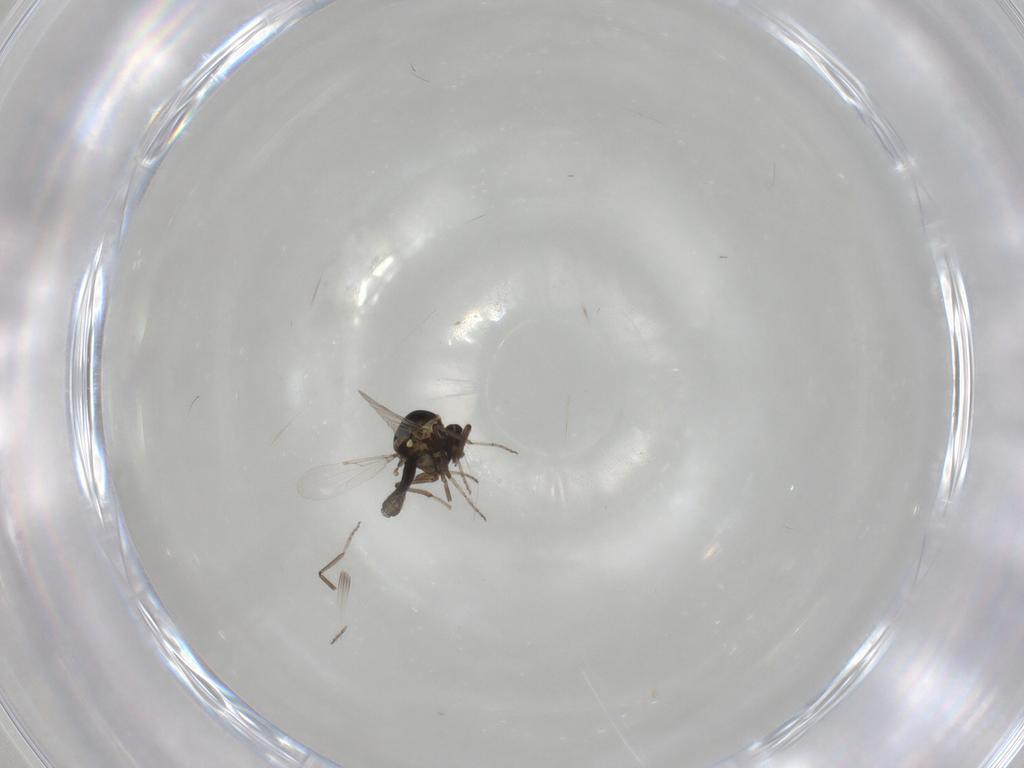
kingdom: Animalia
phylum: Arthropoda
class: Insecta
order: Diptera
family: Ceratopogonidae
